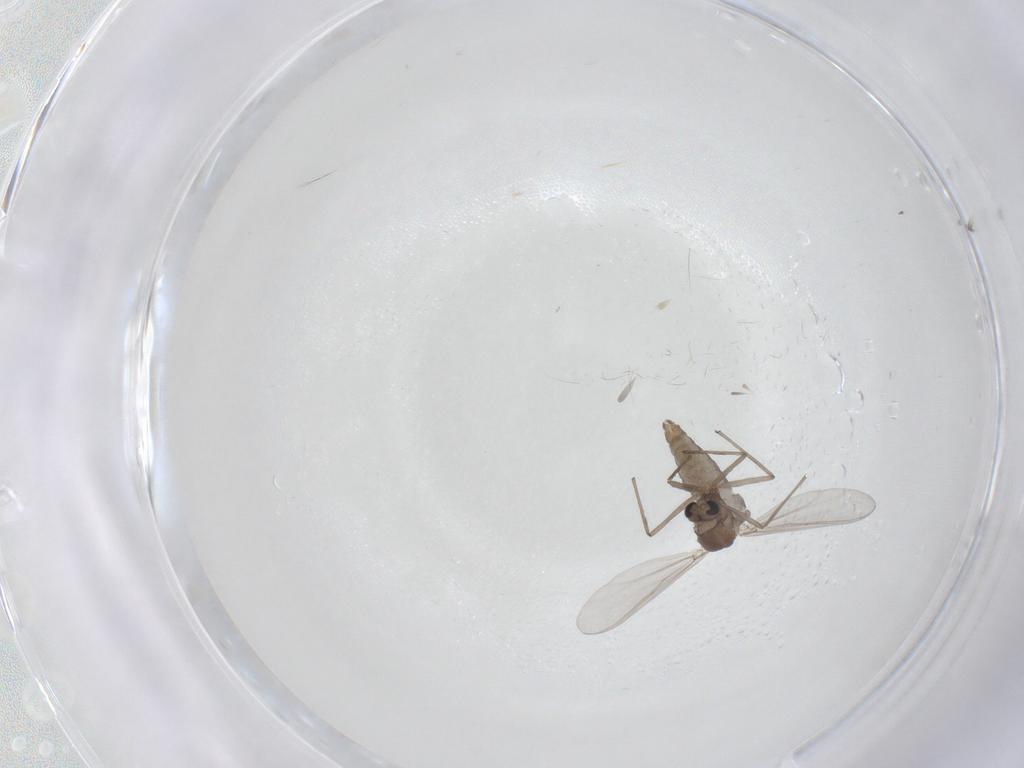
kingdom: Animalia
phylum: Arthropoda
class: Insecta
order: Diptera
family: Chironomidae
